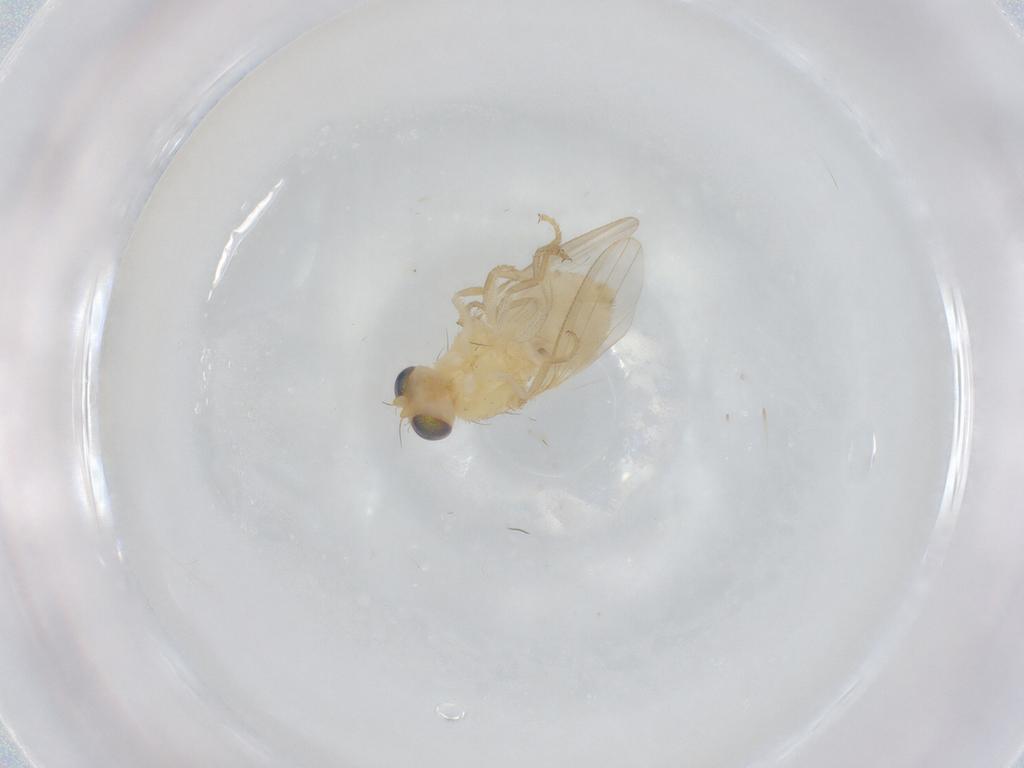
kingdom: Animalia
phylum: Arthropoda
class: Insecta
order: Diptera
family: Chyromyidae
